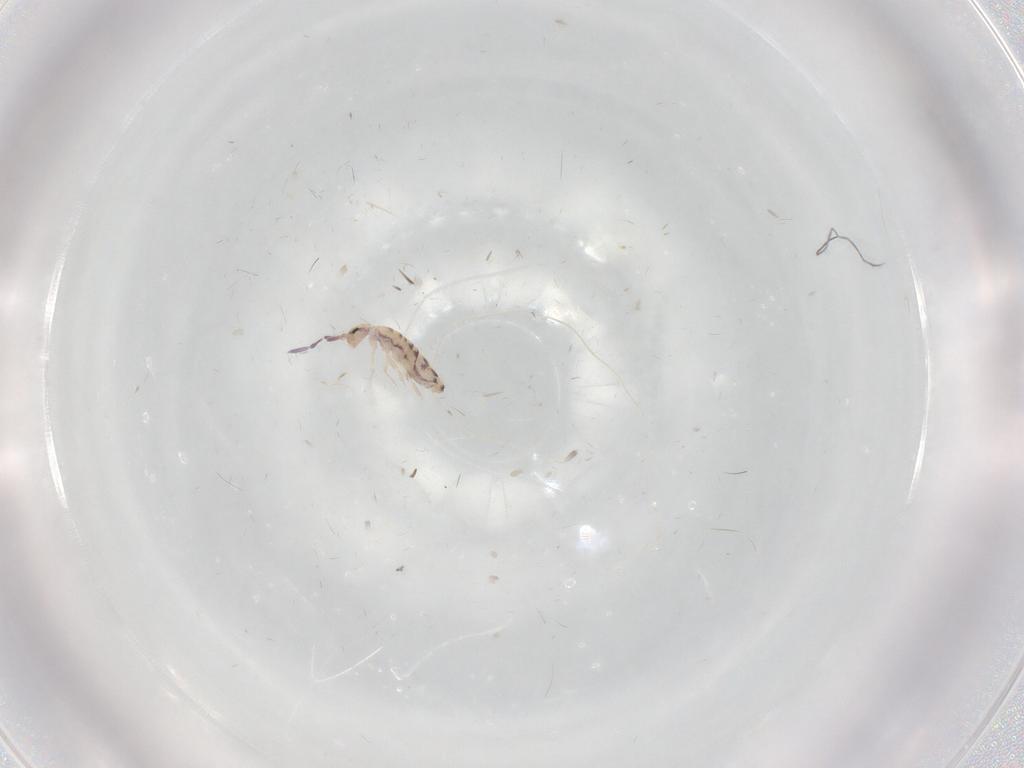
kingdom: Animalia
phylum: Arthropoda
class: Collembola
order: Entomobryomorpha
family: Entomobryidae
